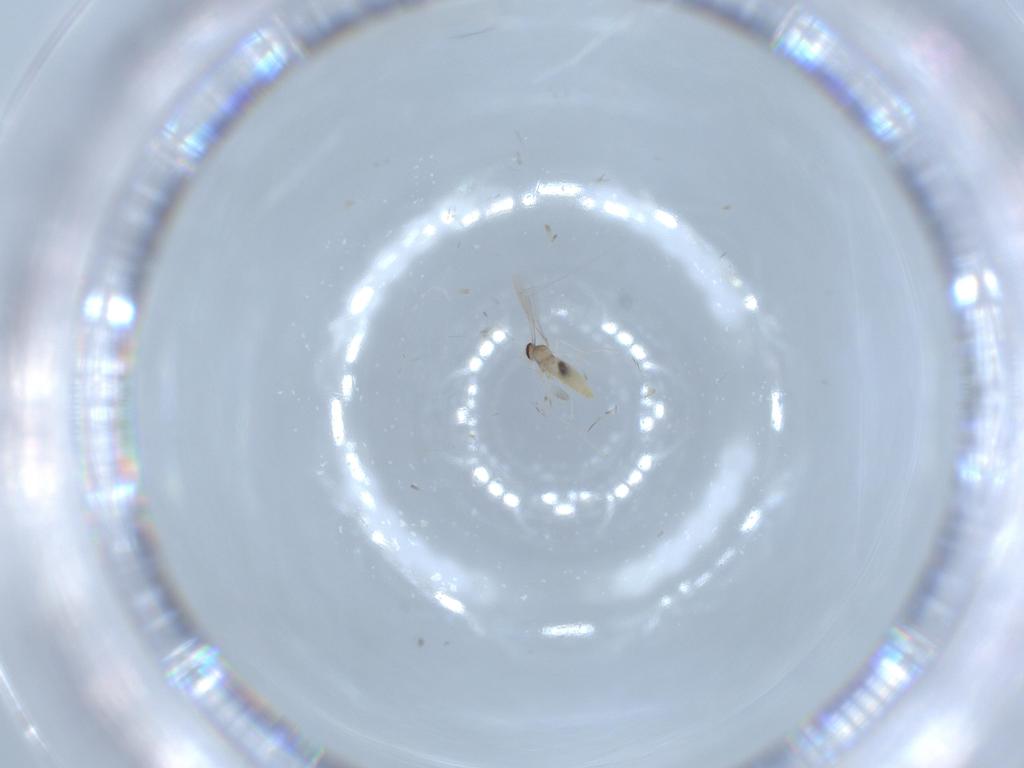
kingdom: Animalia
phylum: Arthropoda
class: Insecta
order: Diptera
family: Cecidomyiidae
